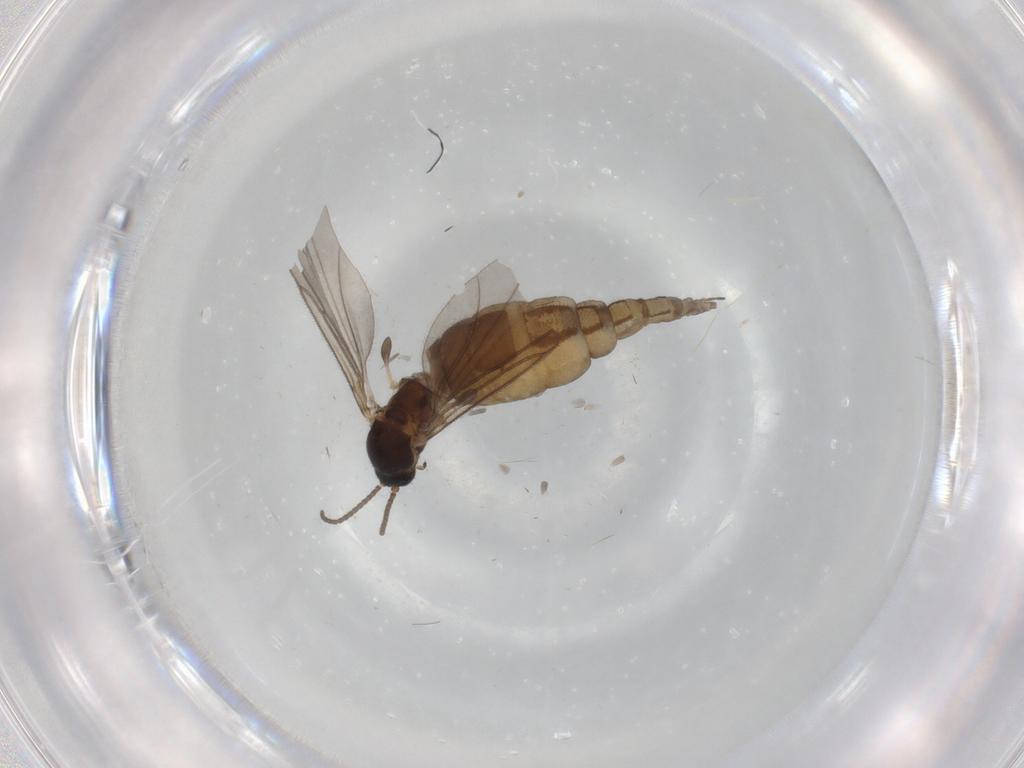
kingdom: Animalia
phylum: Arthropoda
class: Insecta
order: Diptera
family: Sciaridae
